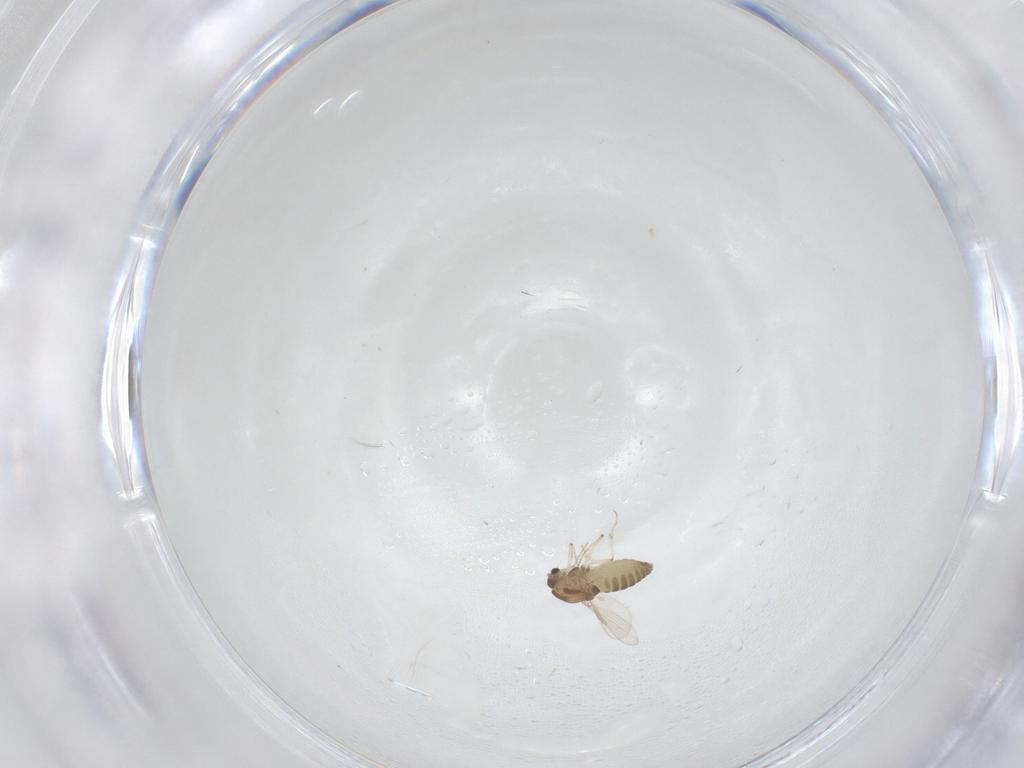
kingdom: Animalia
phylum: Arthropoda
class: Insecta
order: Diptera
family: Chironomidae
